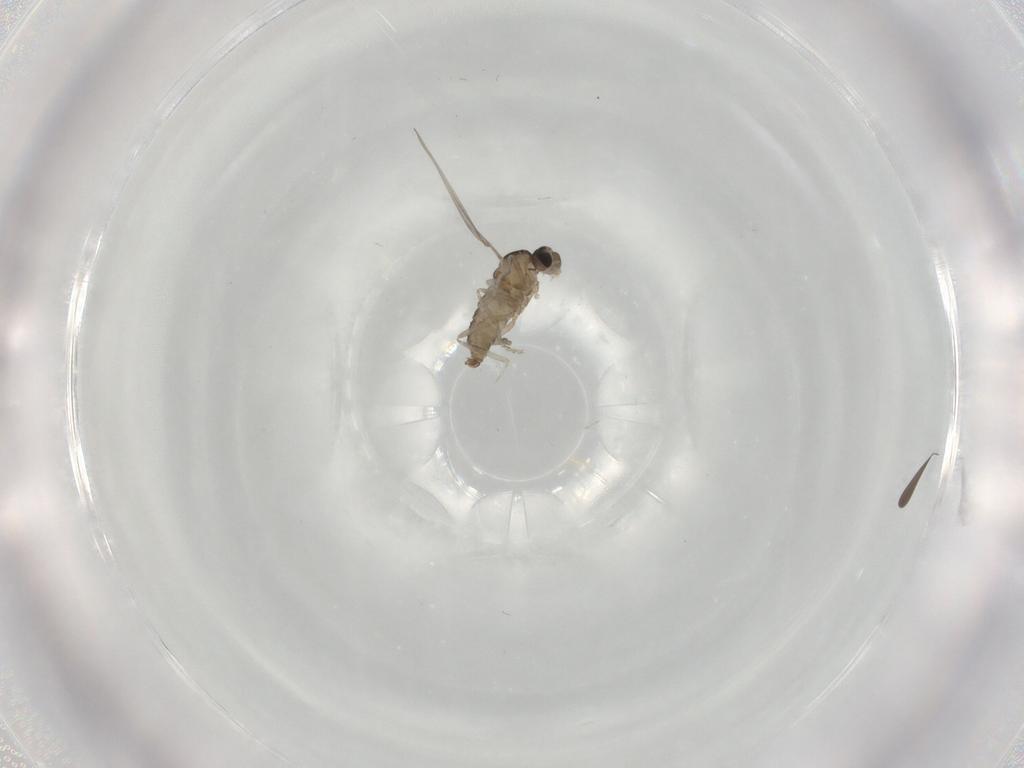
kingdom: Animalia
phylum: Arthropoda
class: Insecta
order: Diptera
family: Cecidomyiidae
